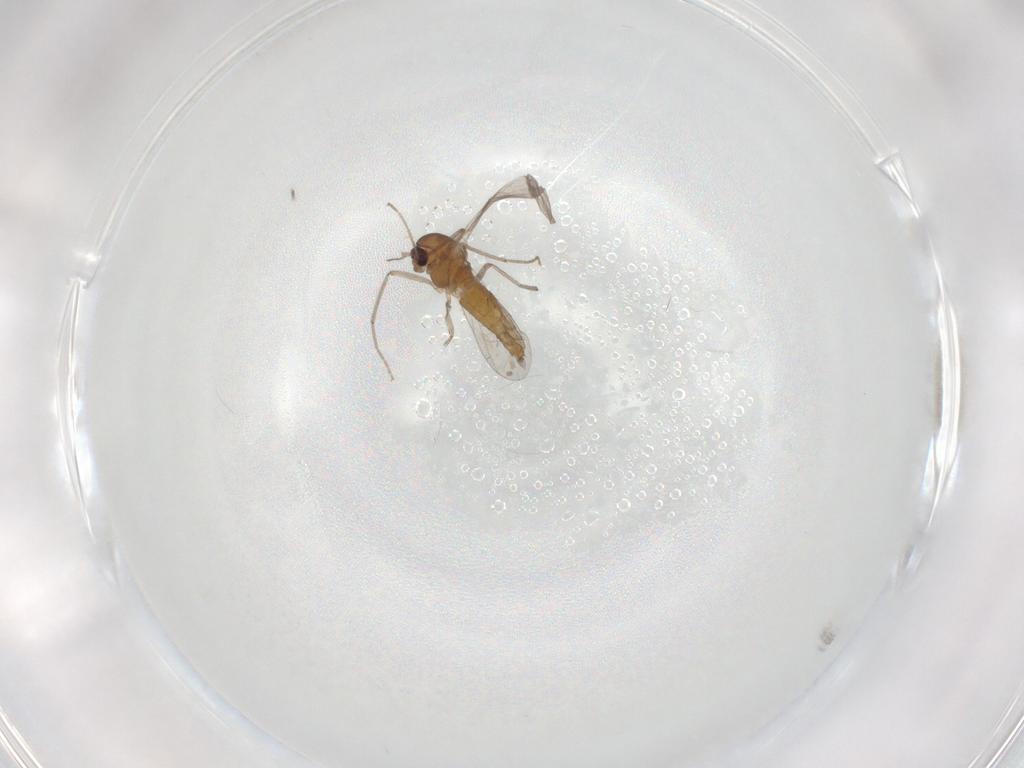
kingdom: Animalia
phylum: Arthropoda
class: Insecta
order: Diptera
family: Chironomidae
